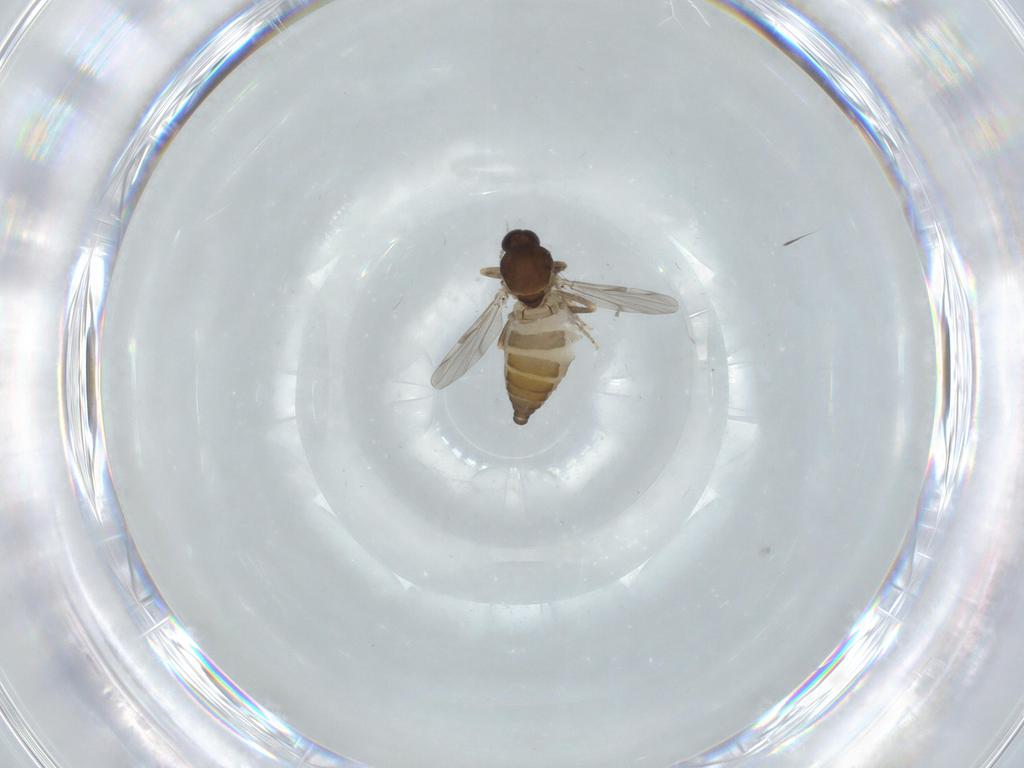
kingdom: Animalia
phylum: Arthropoda
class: Insecta
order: Diptera
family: Ceratopogonidae
